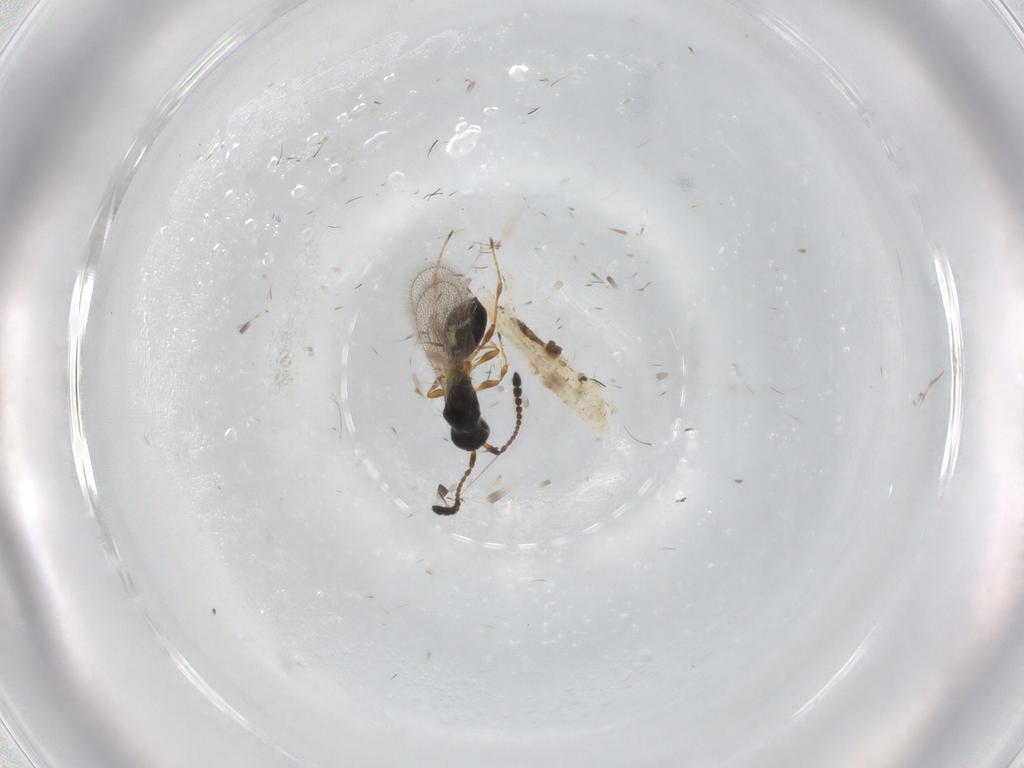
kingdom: Animalia
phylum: Arthropoda
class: Insecta
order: Hymenoptera
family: Diapriidae
